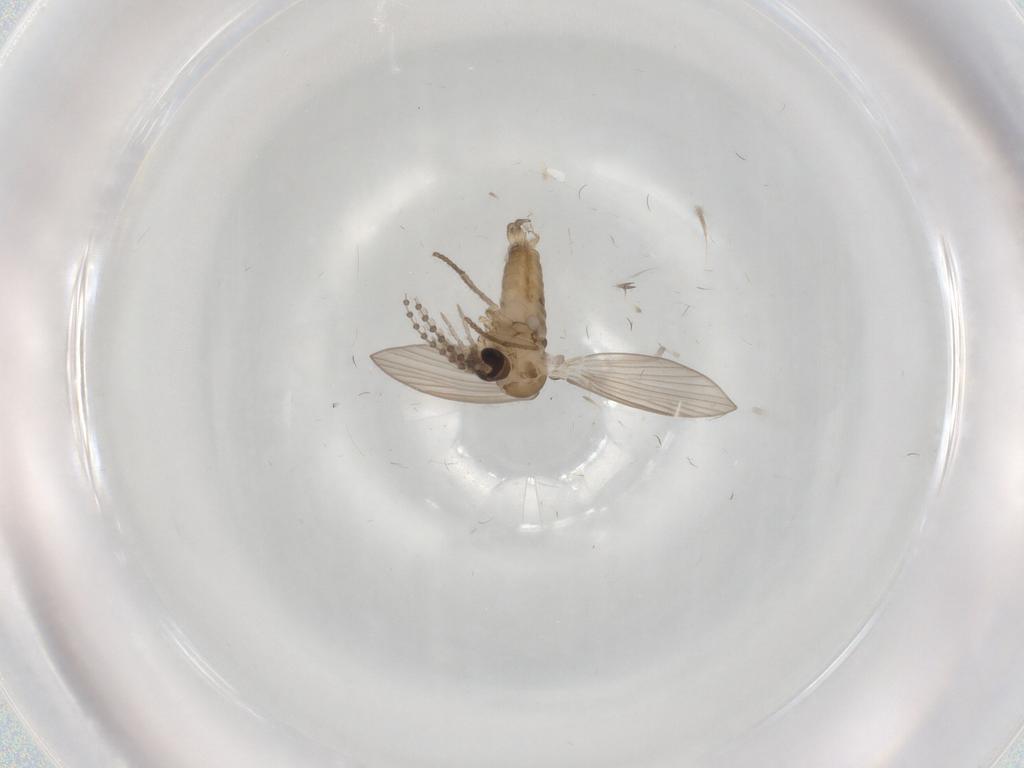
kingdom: Animalia
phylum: Arthropoda
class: Insecta
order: Diptera
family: Psychodidae
